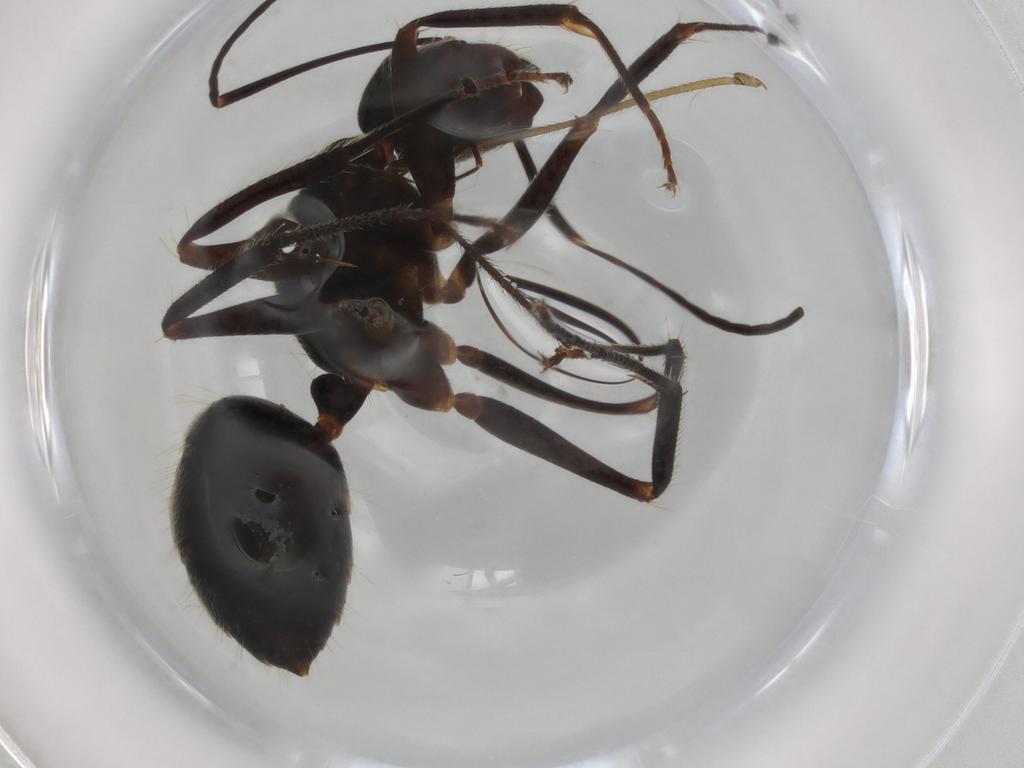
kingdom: Animalia
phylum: Arthropoda
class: Insecta
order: Hymenoptera
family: Formicidae
